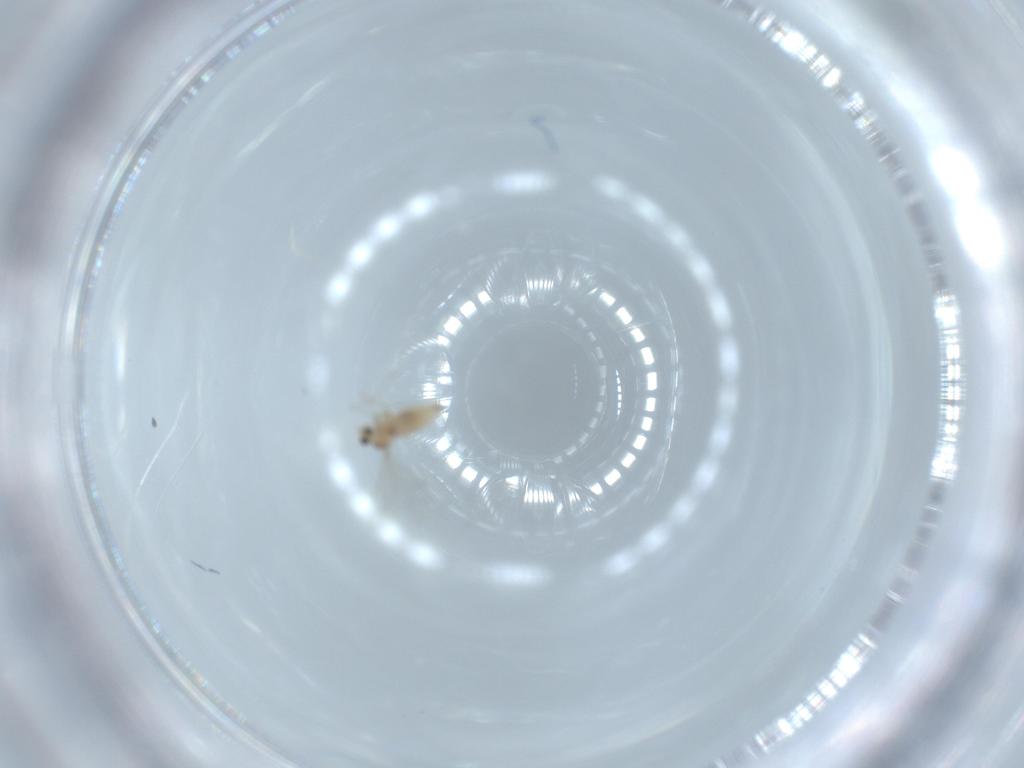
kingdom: Animalia
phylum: Arthropoda
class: Insecta
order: Diptera
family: Cecidomyiidae
